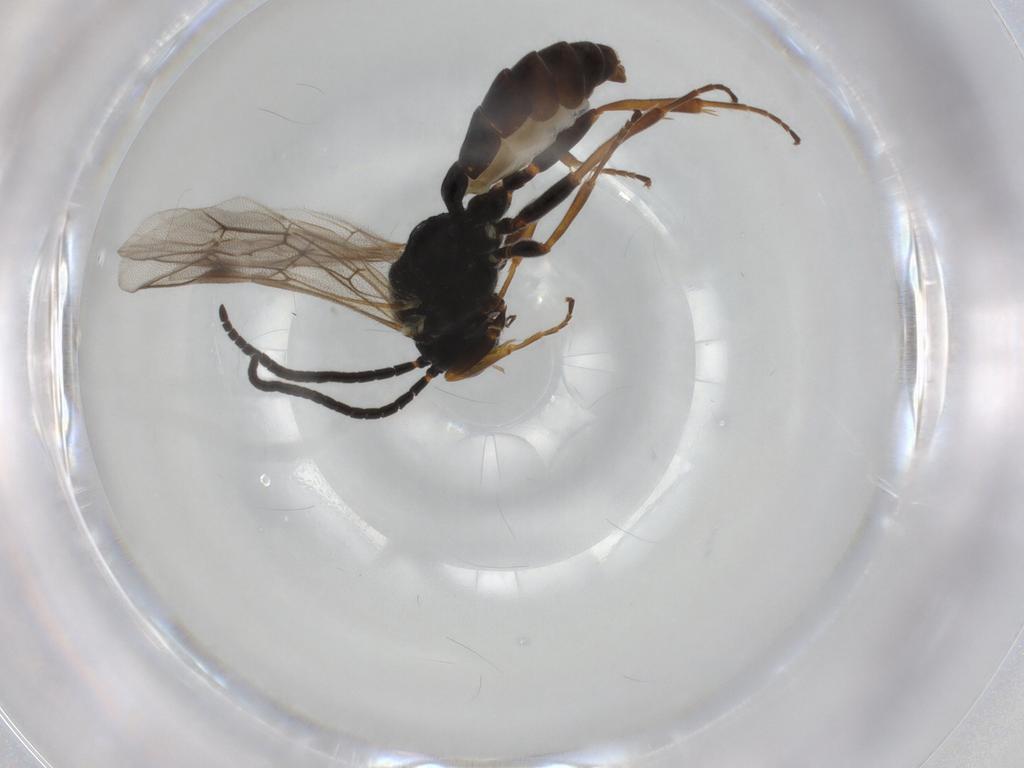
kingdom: Animalia
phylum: Arthropoda
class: Insecta
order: Hymenoptera
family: Ichneumonidae
